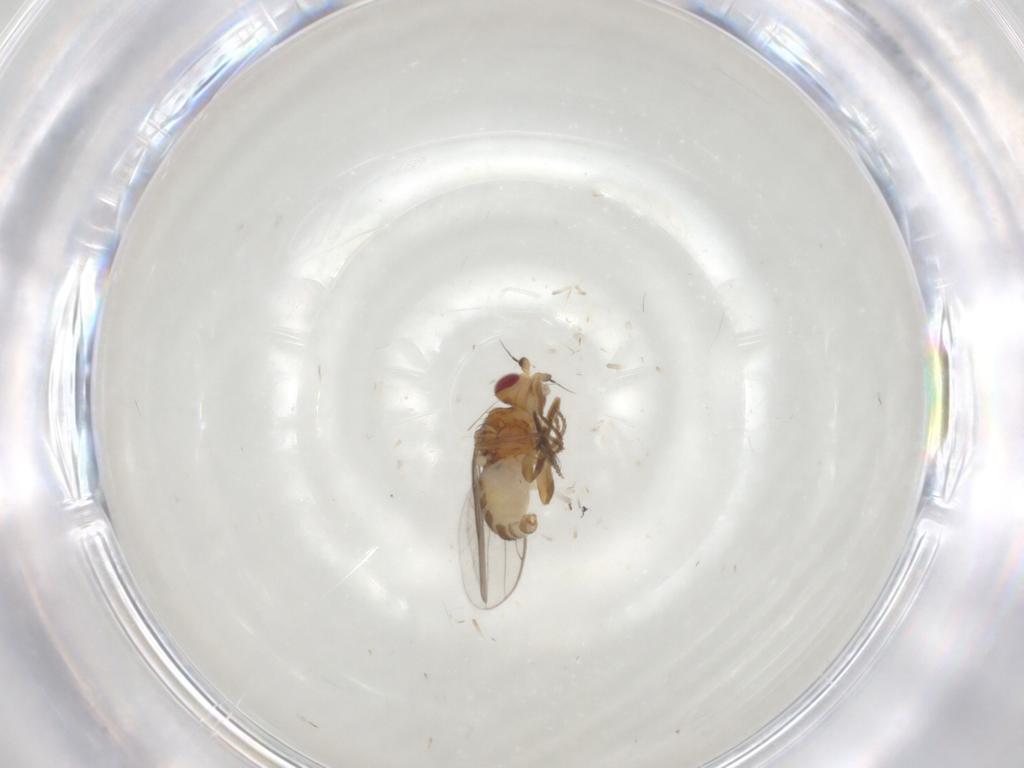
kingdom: Animalia
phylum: Arthropoda
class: Insecta
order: Diptera
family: Chloropidae
